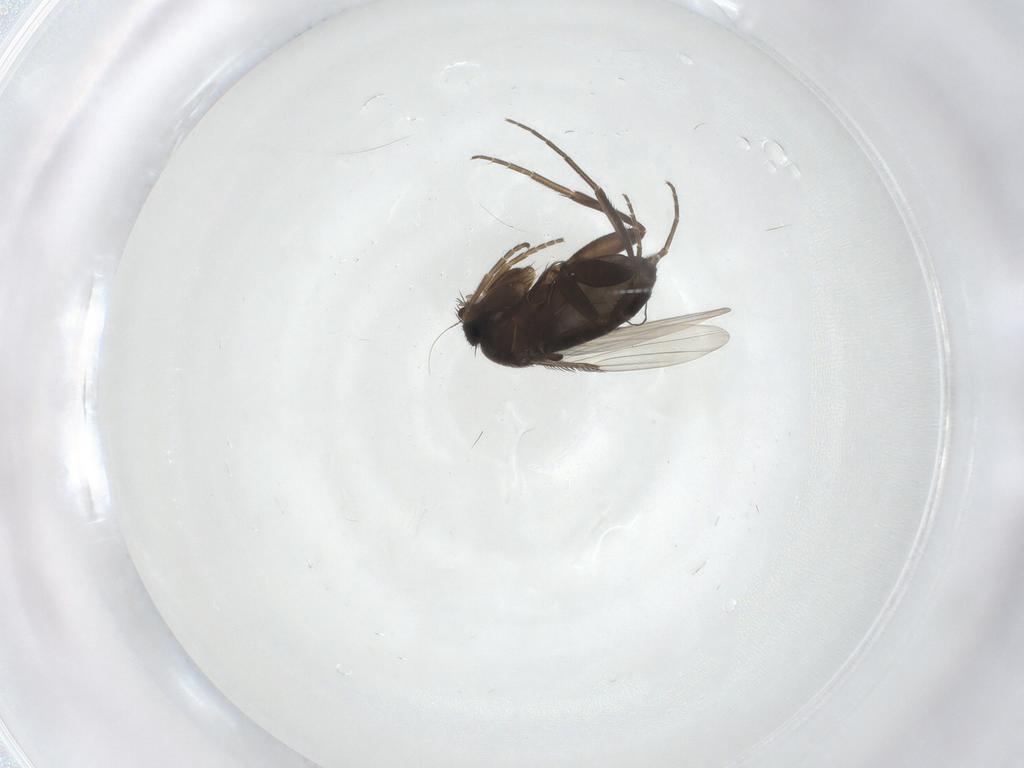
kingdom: Animalia
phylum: Arthropoda
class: Insecta
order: Diptera
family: Phoridae
